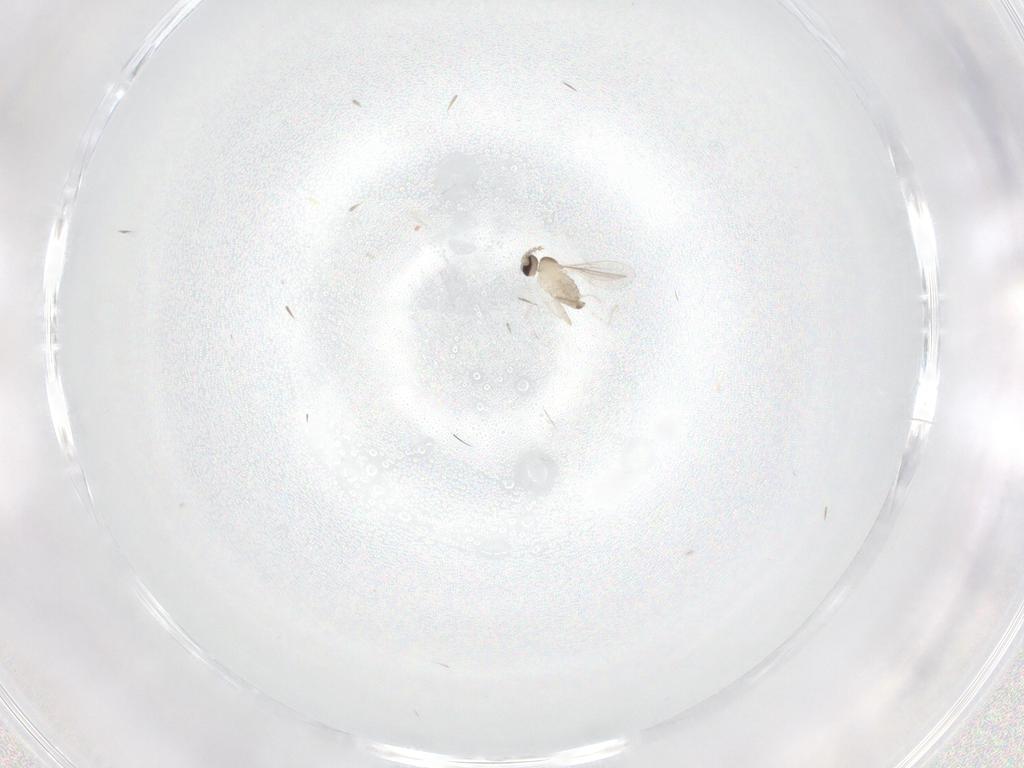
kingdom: Animalia
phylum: Arthropoda
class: Insecta
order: Diptera
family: Cecidomyiidae
